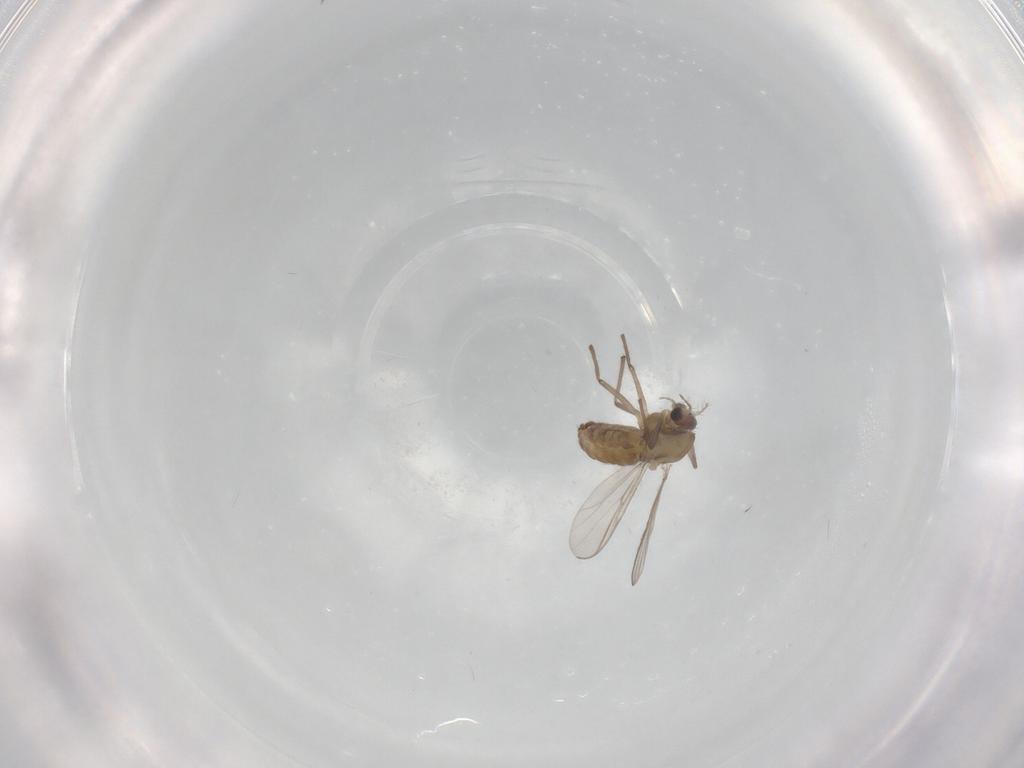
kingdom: Animalia
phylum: Arthropoda
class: Insecta
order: Diptera
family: Chironomidae
